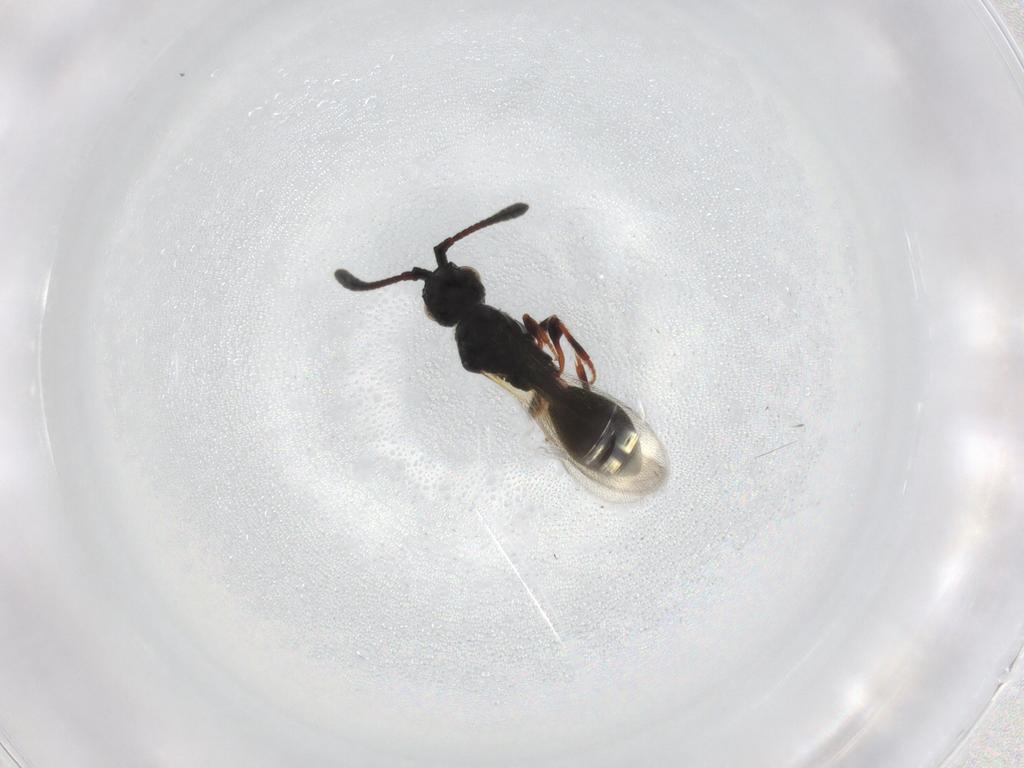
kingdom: Animalia
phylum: Arthropoda
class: Insecta
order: Hymenoptera
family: Diapriidae
